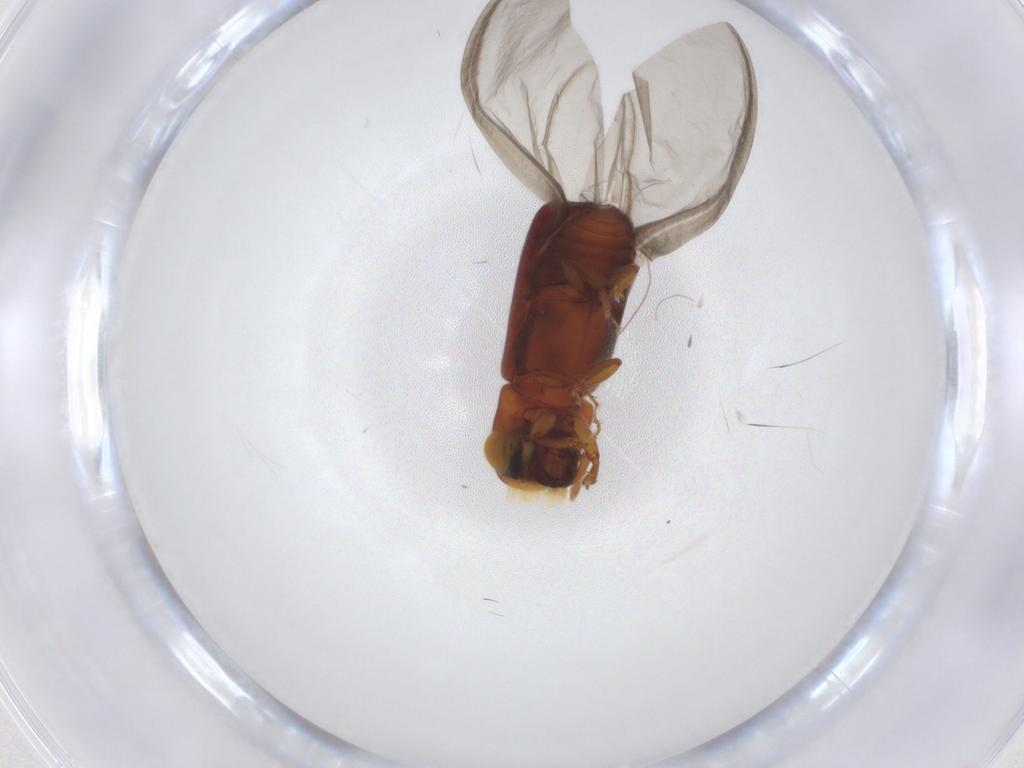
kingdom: Animalia
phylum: Arthropoda
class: Insecta
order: Coleoptera
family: Curculionidae
